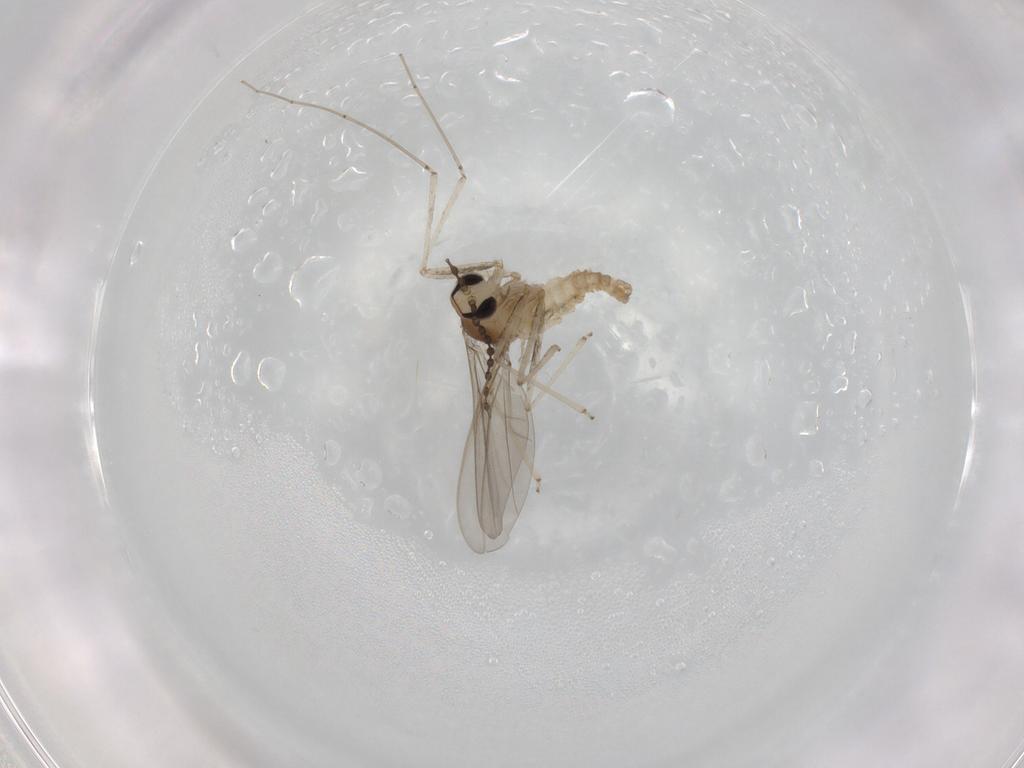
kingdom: Animalia
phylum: Arthropoda
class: Insecta
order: Diptera
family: Cecidomyiidae
